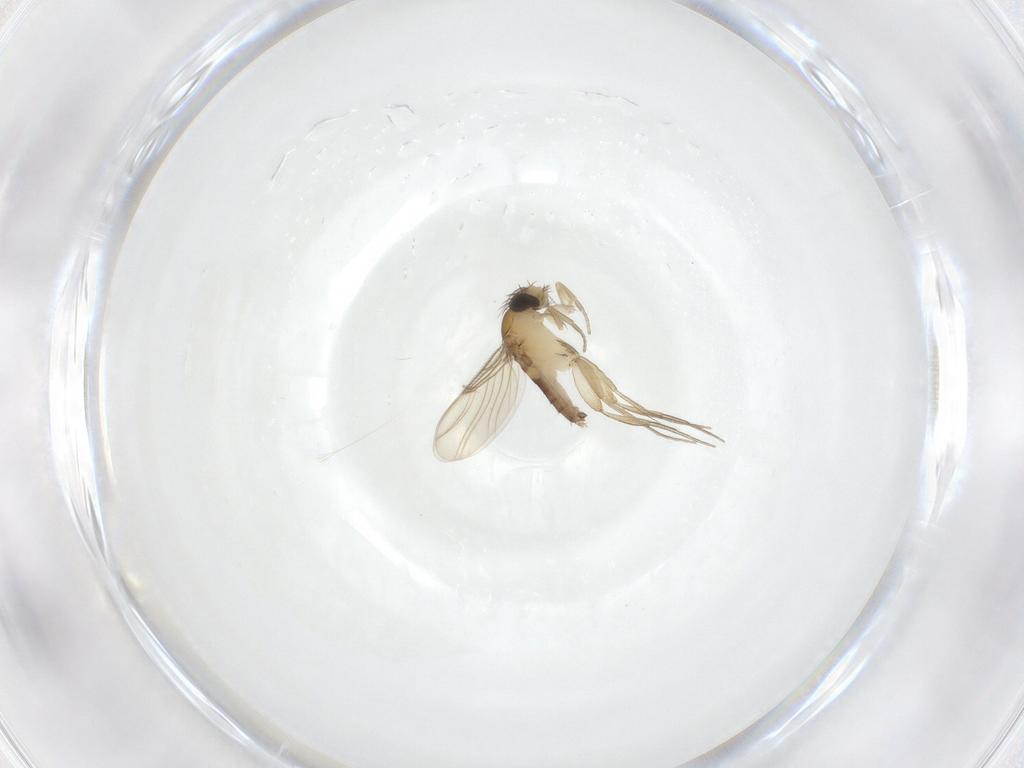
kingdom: Animalia
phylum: Arthropoda
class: Insecta
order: Diptera
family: Phoridae
